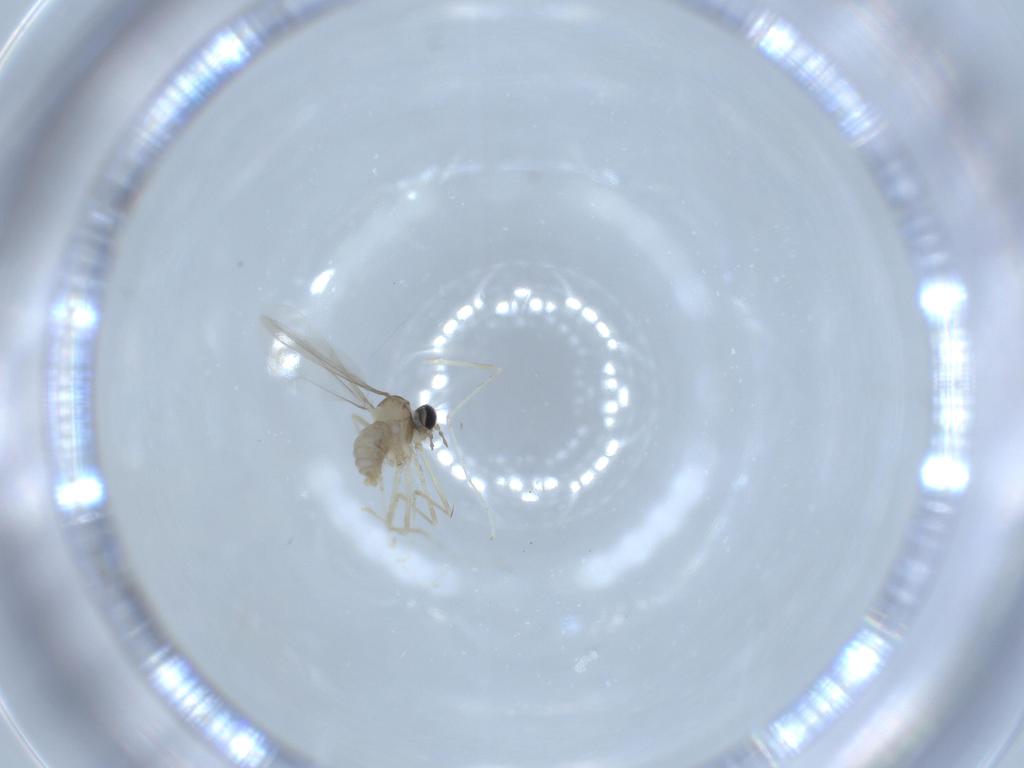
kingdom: Animalia
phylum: Arthropoda
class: Insecta
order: Diptera
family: Cecidomyiidae
